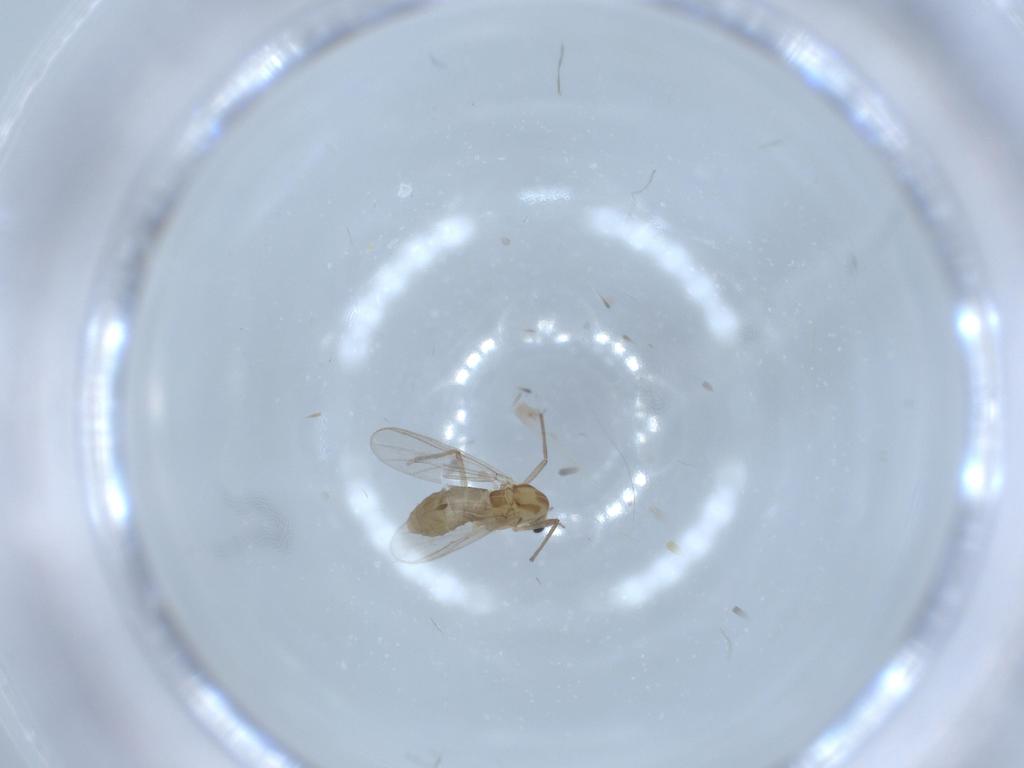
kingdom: Animalia
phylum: Arthropoda
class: Insecta
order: Diptera
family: Chironomidae
